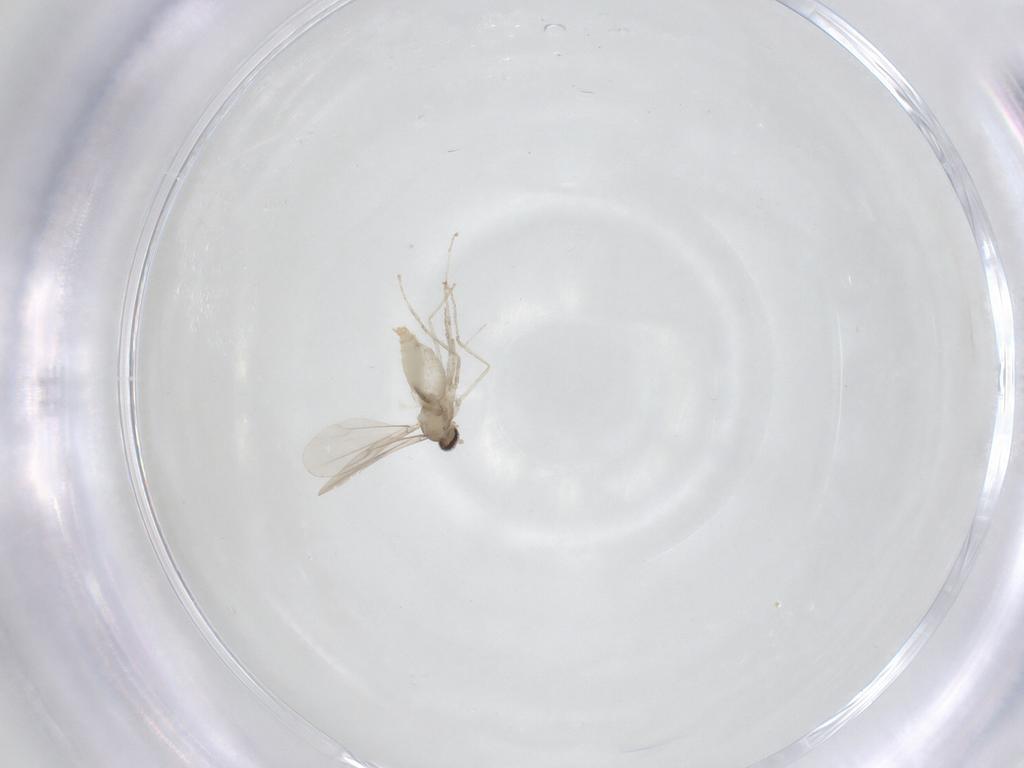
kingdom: Animalia
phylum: Arthropoda
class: Insecta
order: Diptera
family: Cecidomyiidae
